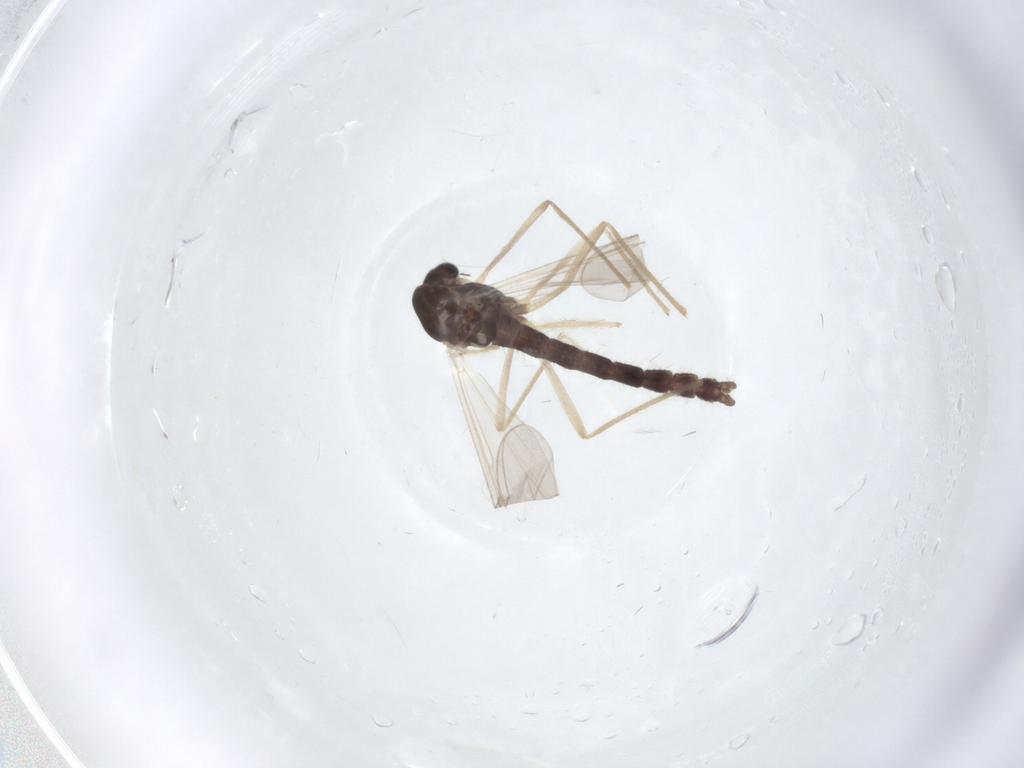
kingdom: Animalia
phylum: Arthropoda
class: Insecta
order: Diptera
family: Chironomidae
